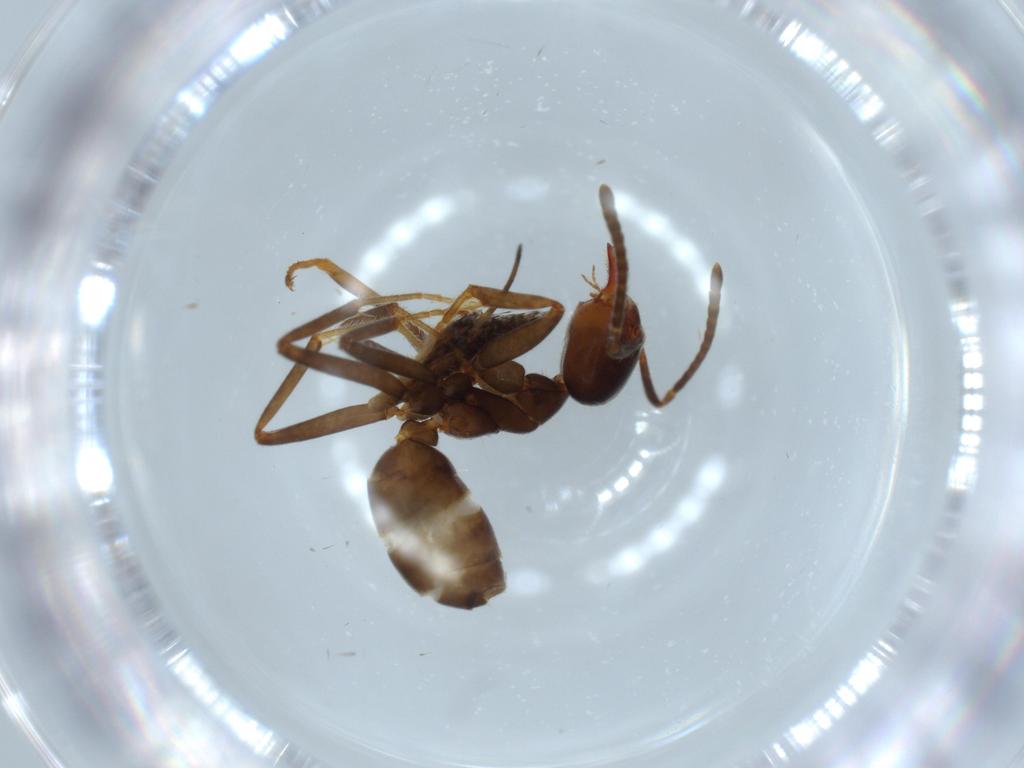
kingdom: Animalia
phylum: Arthropoda
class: Insecta
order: Hymenoptera
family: Formicidae
